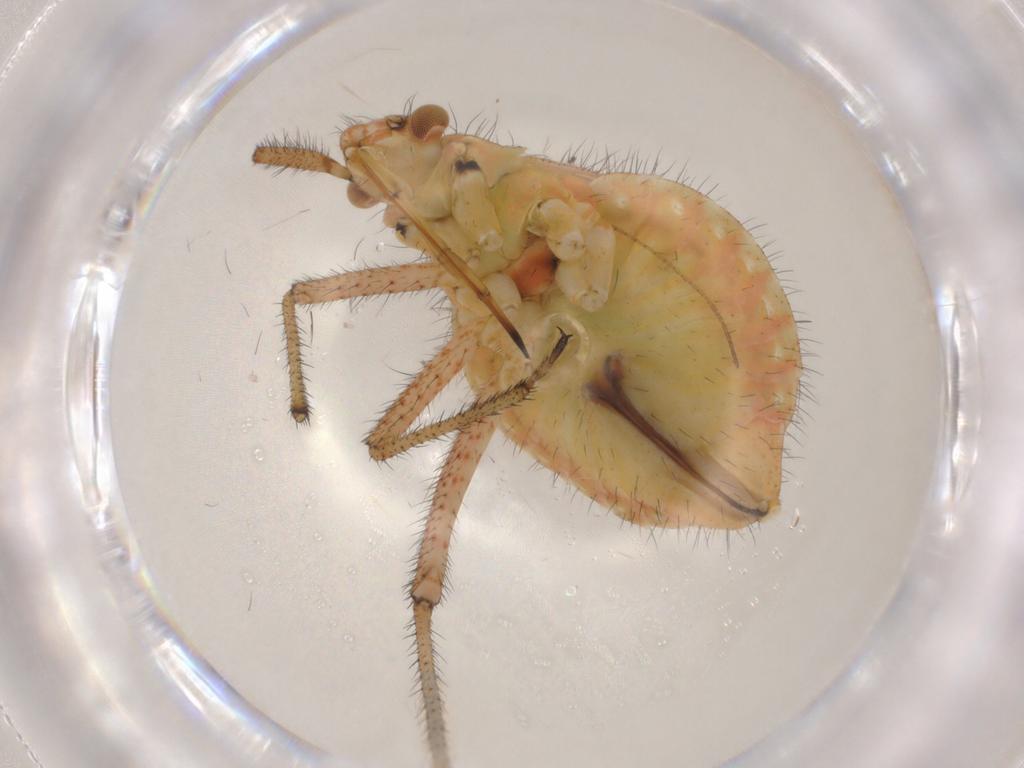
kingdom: Animalia
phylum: Arthropoda
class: Insecta
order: Hemiptera
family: Miridae
